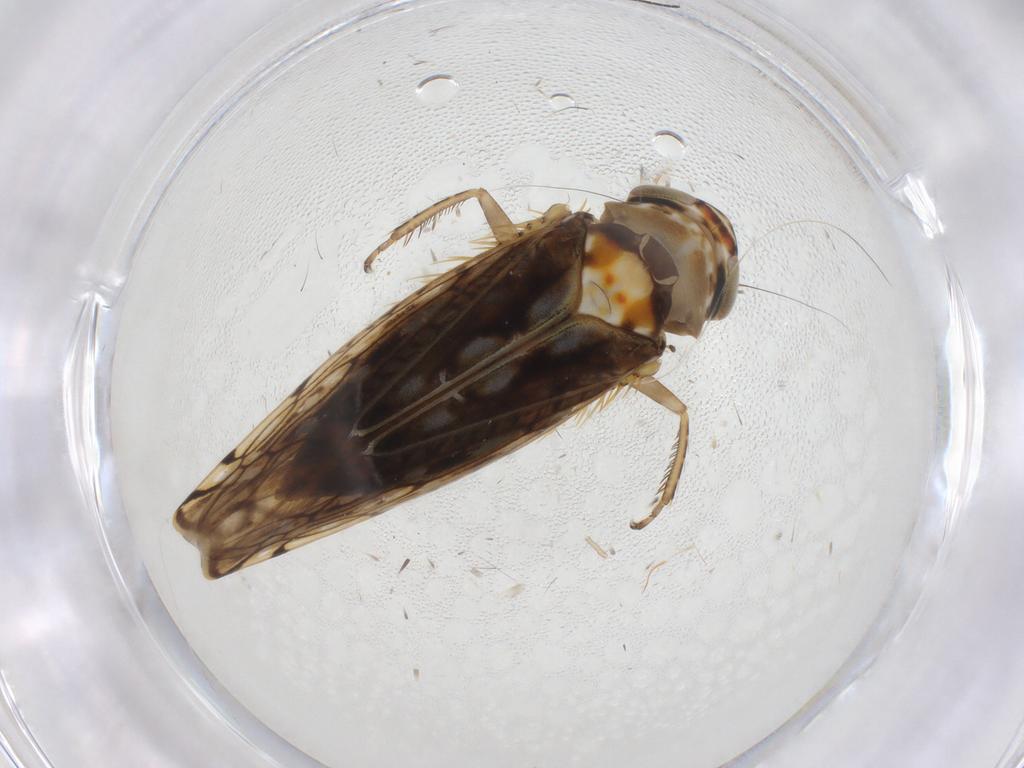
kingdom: Animalia
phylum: Arthropoda
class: Insecta
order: Hemiptera
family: Cicadellidae
